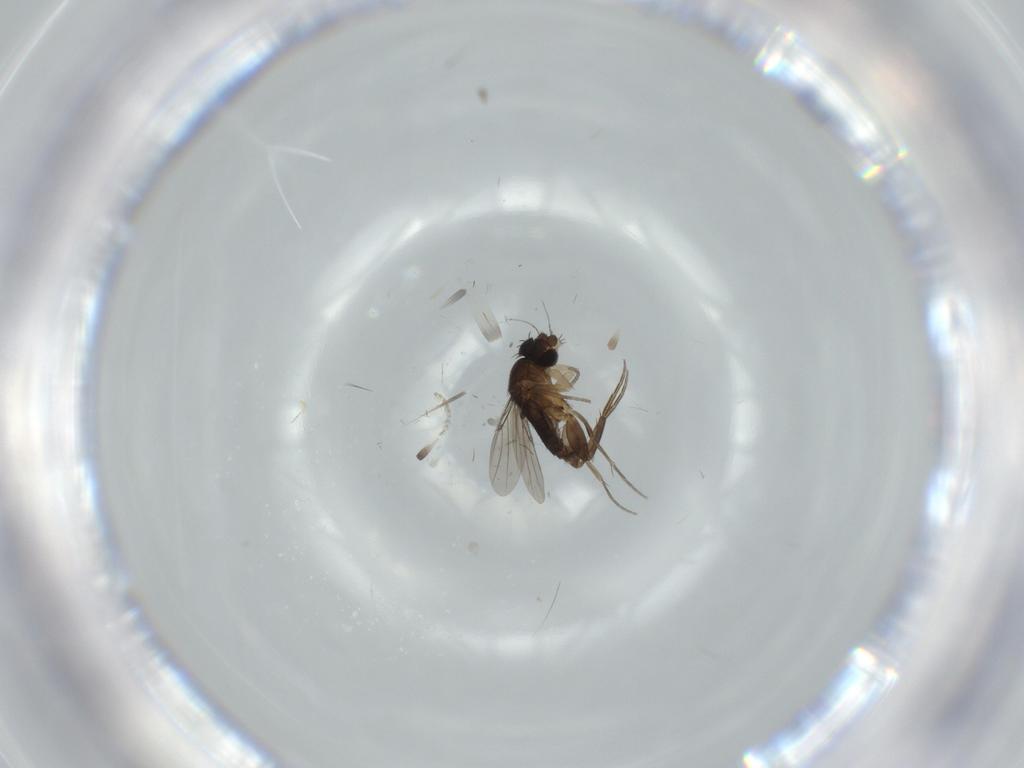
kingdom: Animalia
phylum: Arthropoda
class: Insecta
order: Diptera
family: Phoridae
